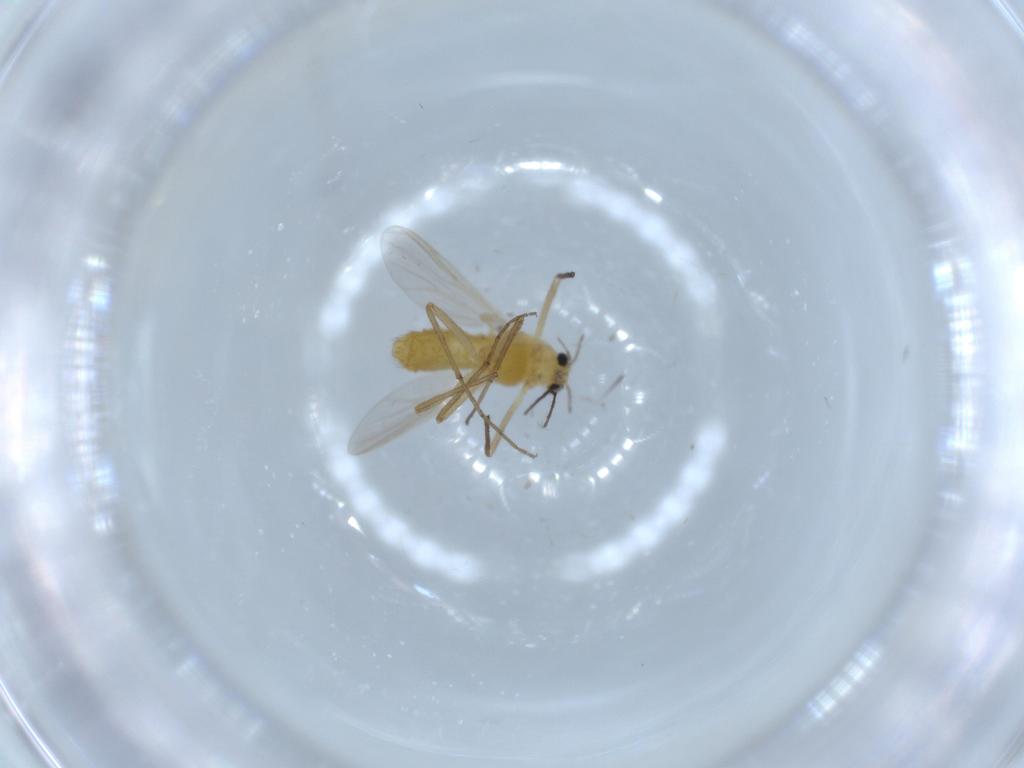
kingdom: Animalia
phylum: Arthropoda
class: Insecta
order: Diptera
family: Chironomidae
